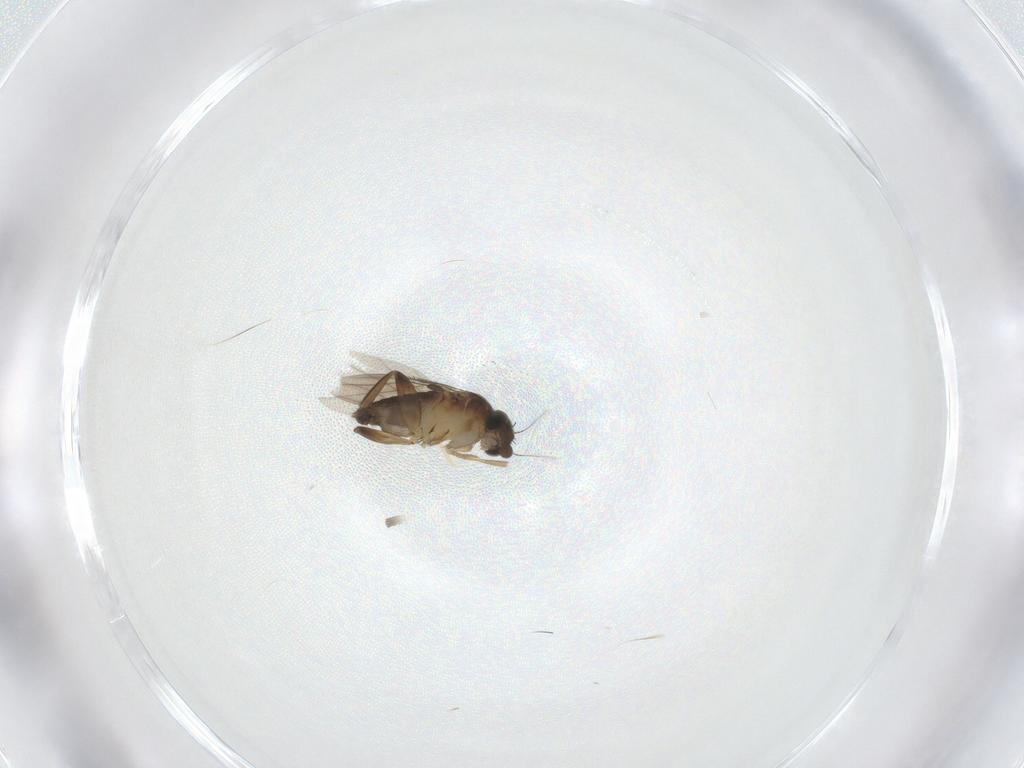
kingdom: Animalia
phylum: Arthropoda
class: Insecta
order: Diptera
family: Phoridae
